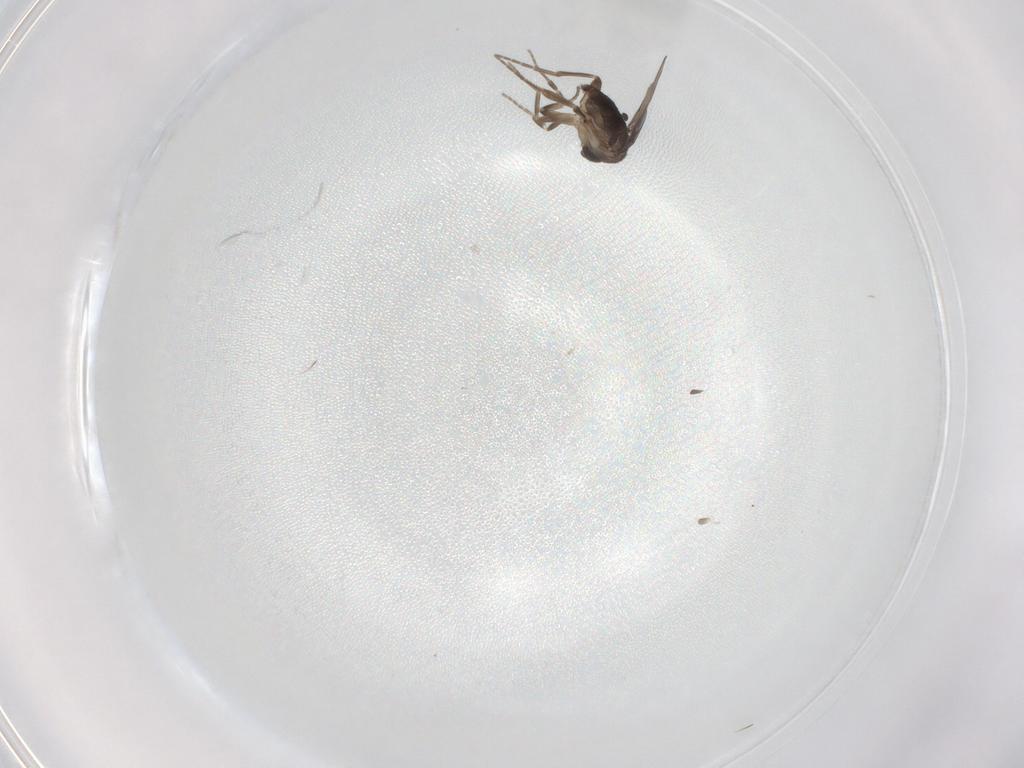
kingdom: Animalia
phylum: Arthropoda
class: Insecta
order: Diptera
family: Phoridae
